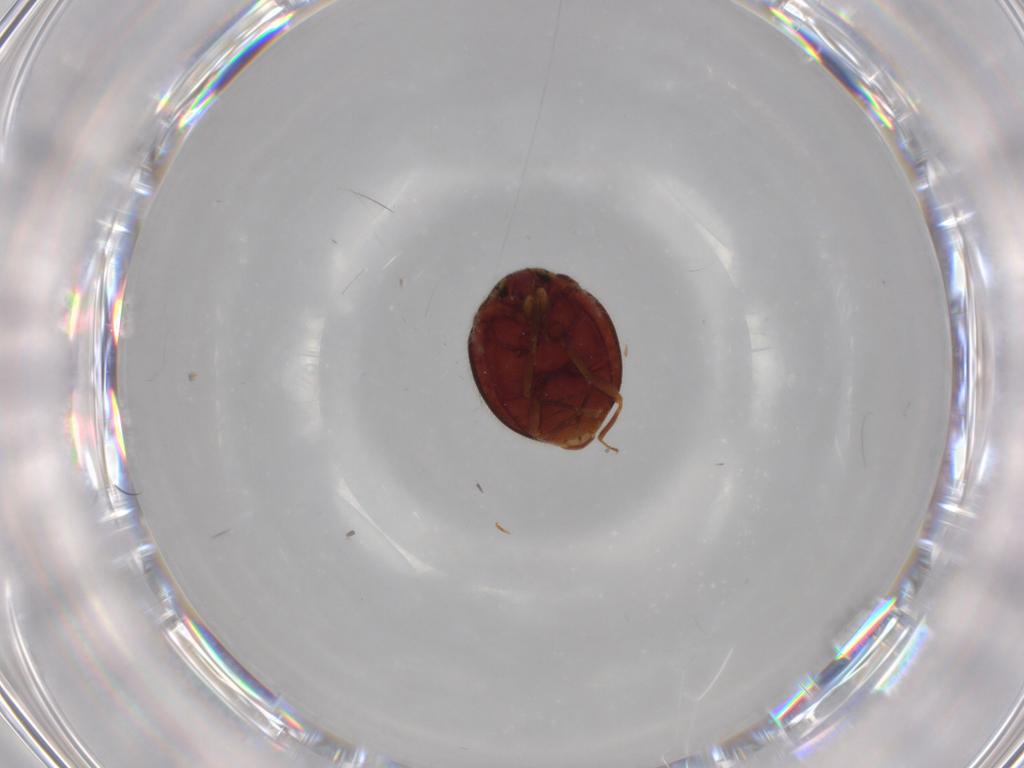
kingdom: Animalia
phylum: Arthropoda
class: Insecta
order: Coleoptera
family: Anamorphidae
